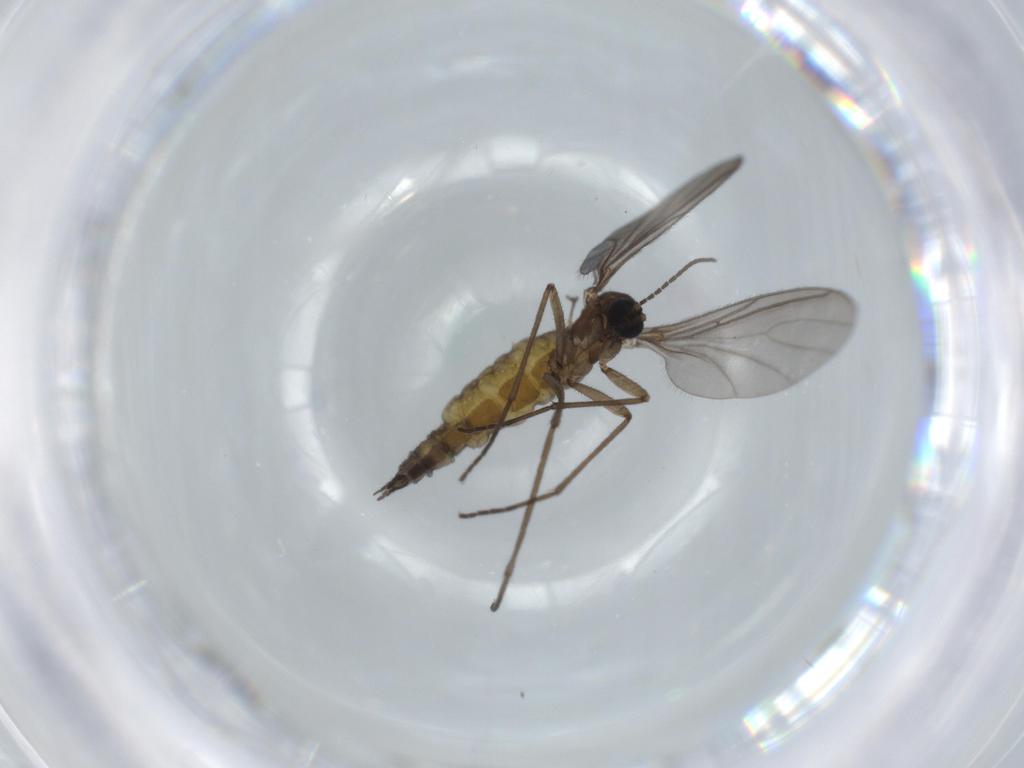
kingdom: Animalia
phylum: Arthropoda
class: Insecta
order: Diptera
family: Sciaridae
